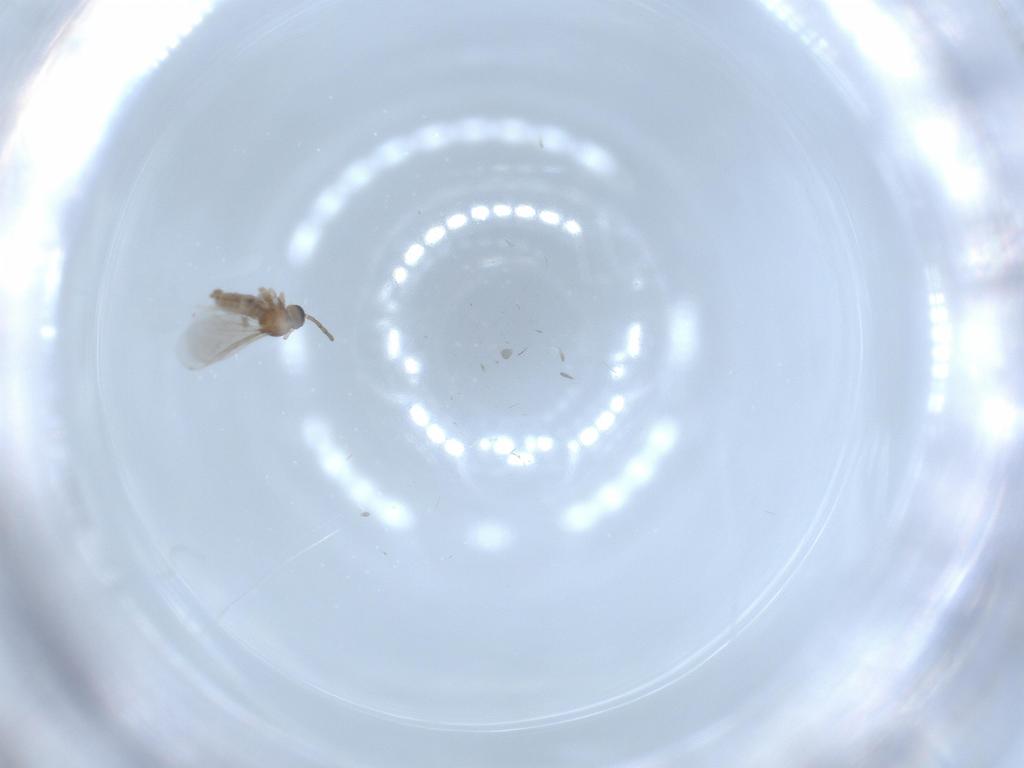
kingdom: Animalia
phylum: Arthropoda
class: Insecta
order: Diptera
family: Cecidomyiidae
